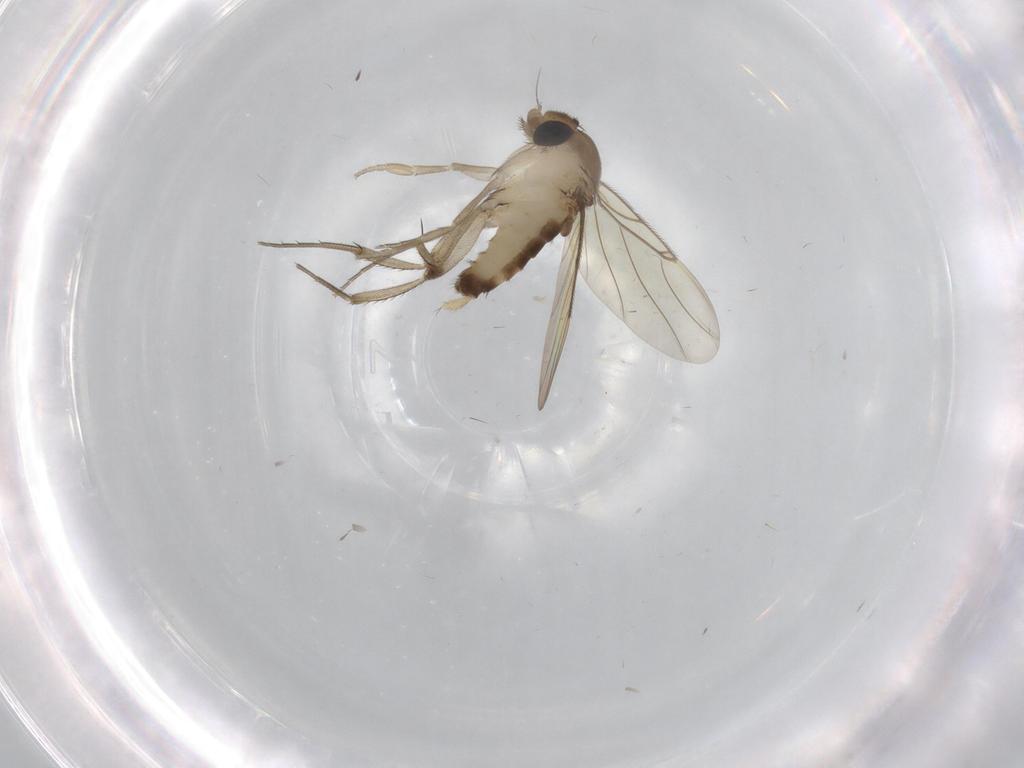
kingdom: Animalia
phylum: Arthropoda
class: Insecta
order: Diptera
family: Phoridae
